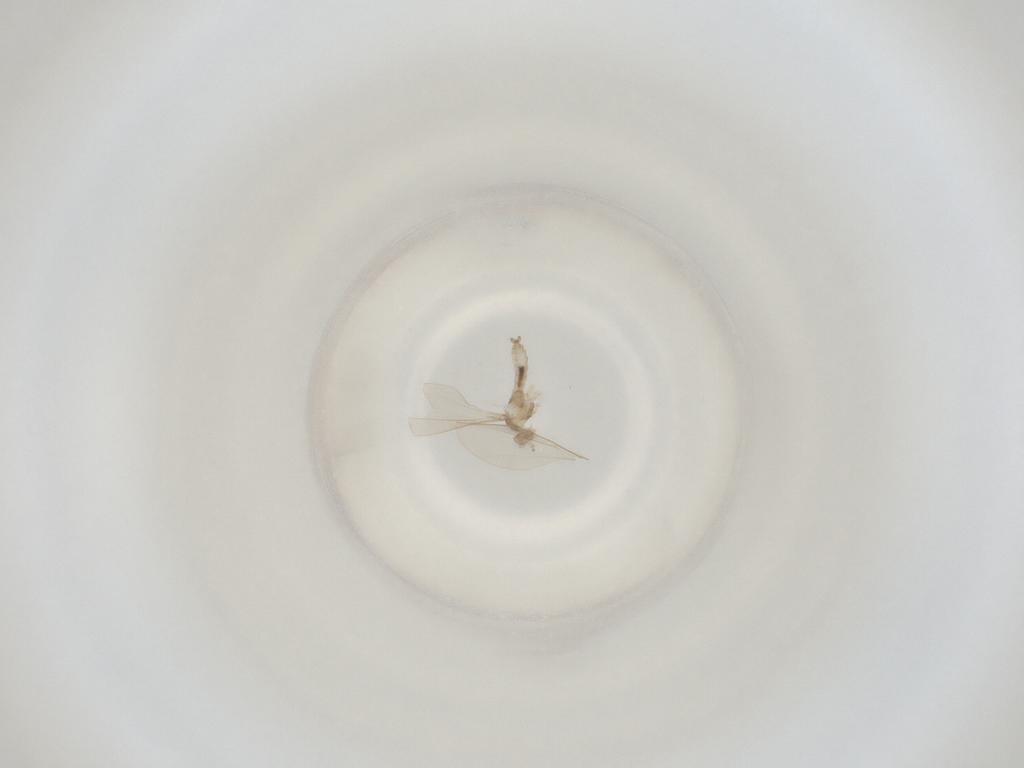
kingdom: Animalia
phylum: Arthropoda
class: Insecta
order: Diptera
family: Cecidomyiidae
